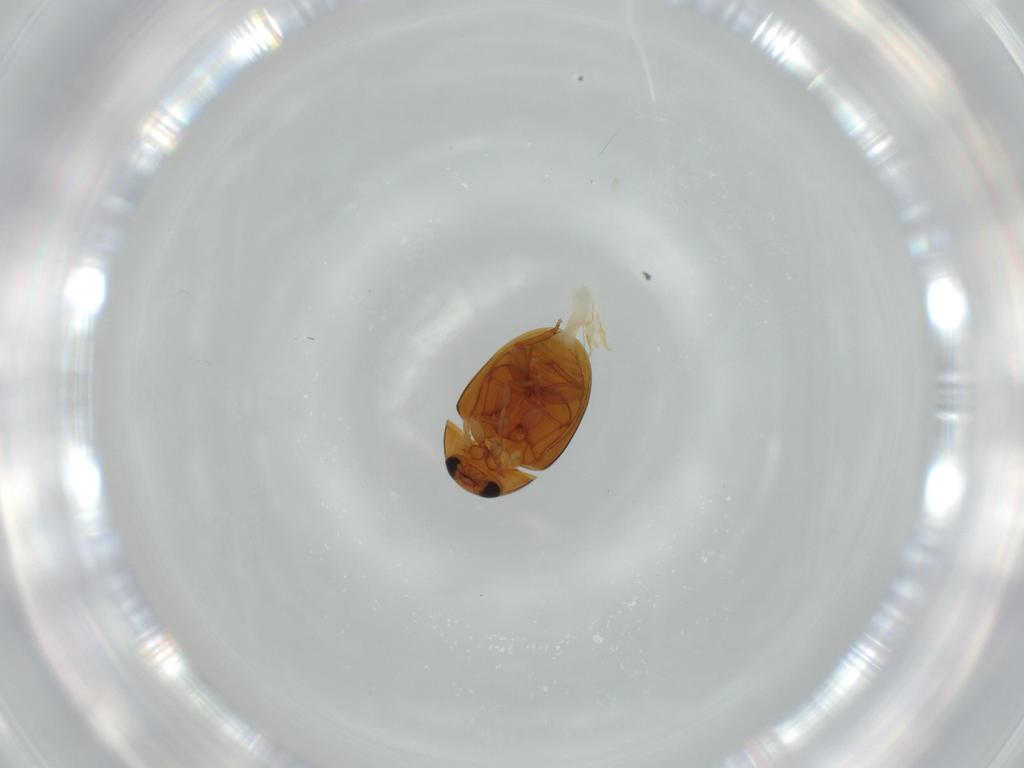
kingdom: Animalia
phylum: Arthropoda
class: Insecta
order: Coleoptera
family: Phalacridae
